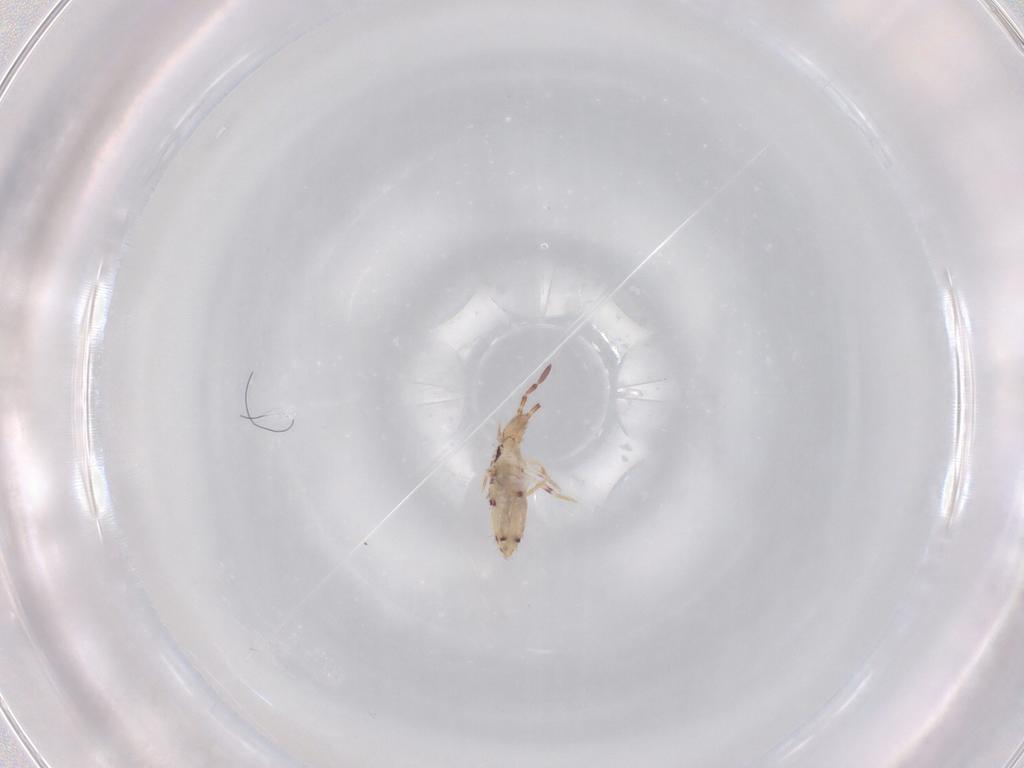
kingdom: Animalia
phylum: Arthropoda
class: Collembola
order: Entomobryomorpha
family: Entomobryidae
